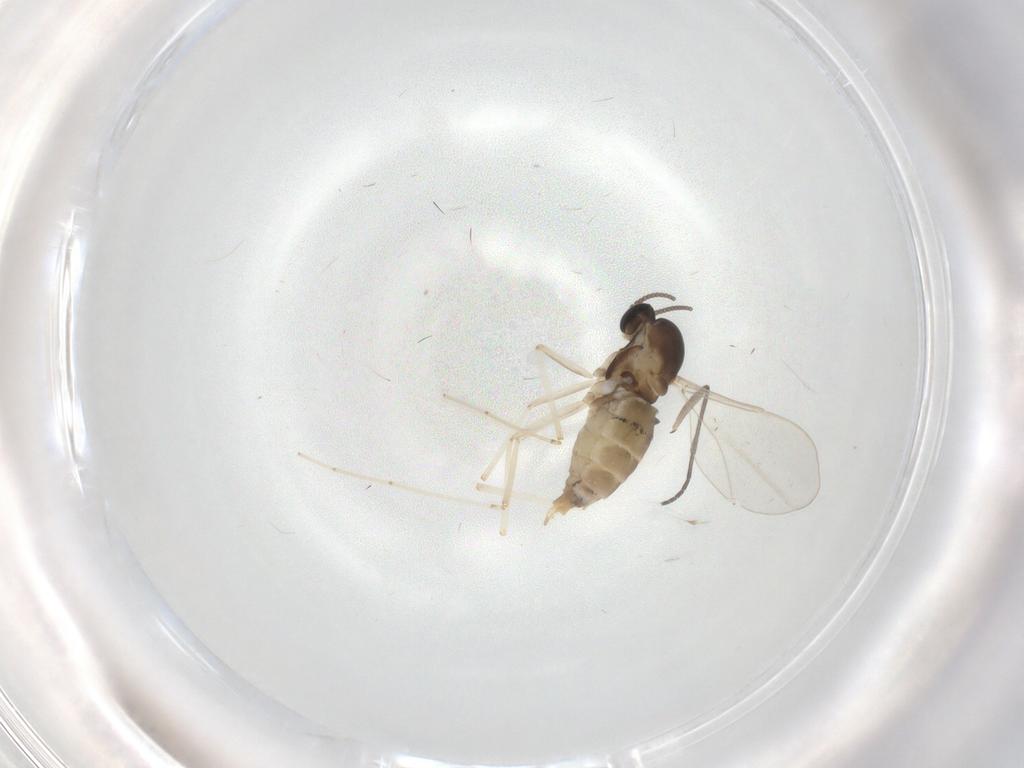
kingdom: Animalia
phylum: Arthropoda
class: Insecta
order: Diptera
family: Cecidomyiidae
